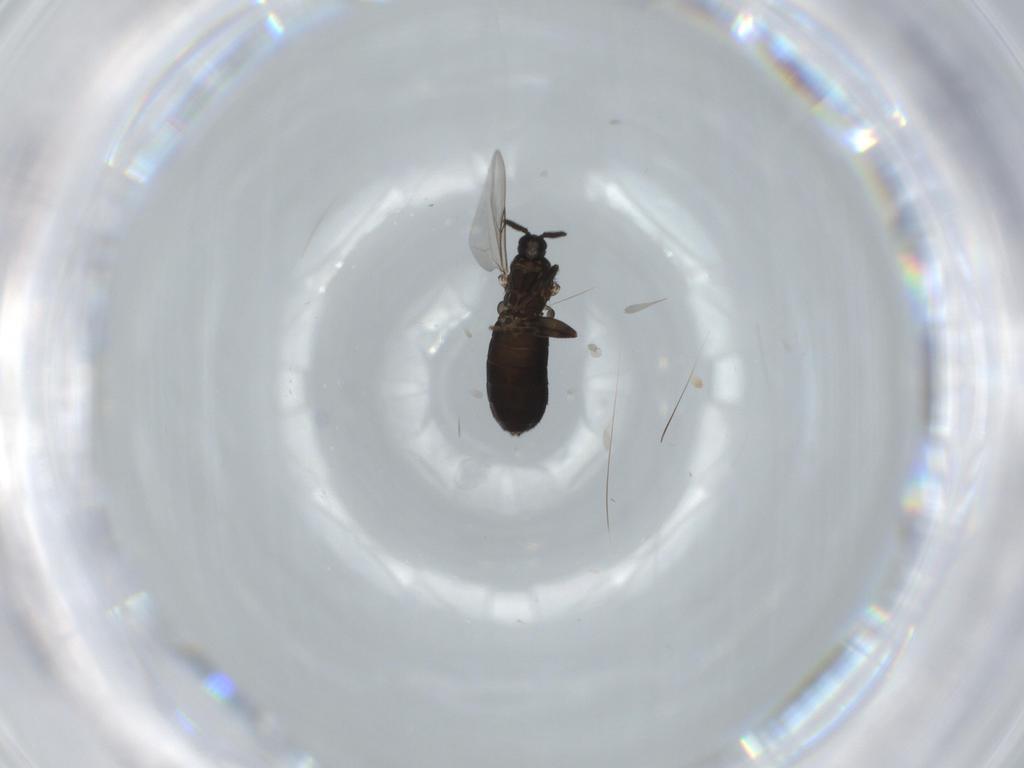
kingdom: Animalia
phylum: Arthropoda
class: Insecta
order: Diptera
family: Scatopsidae
